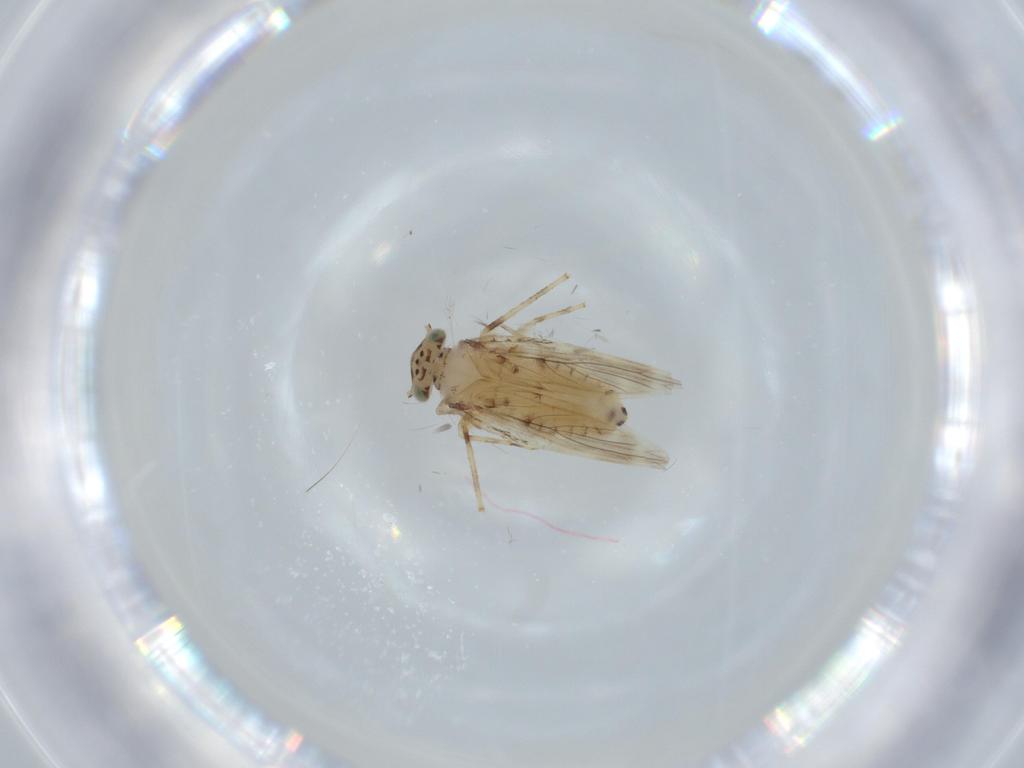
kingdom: Animalia
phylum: Arthropoda
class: Insecta
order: Psocodea
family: Lepidopsocidae
